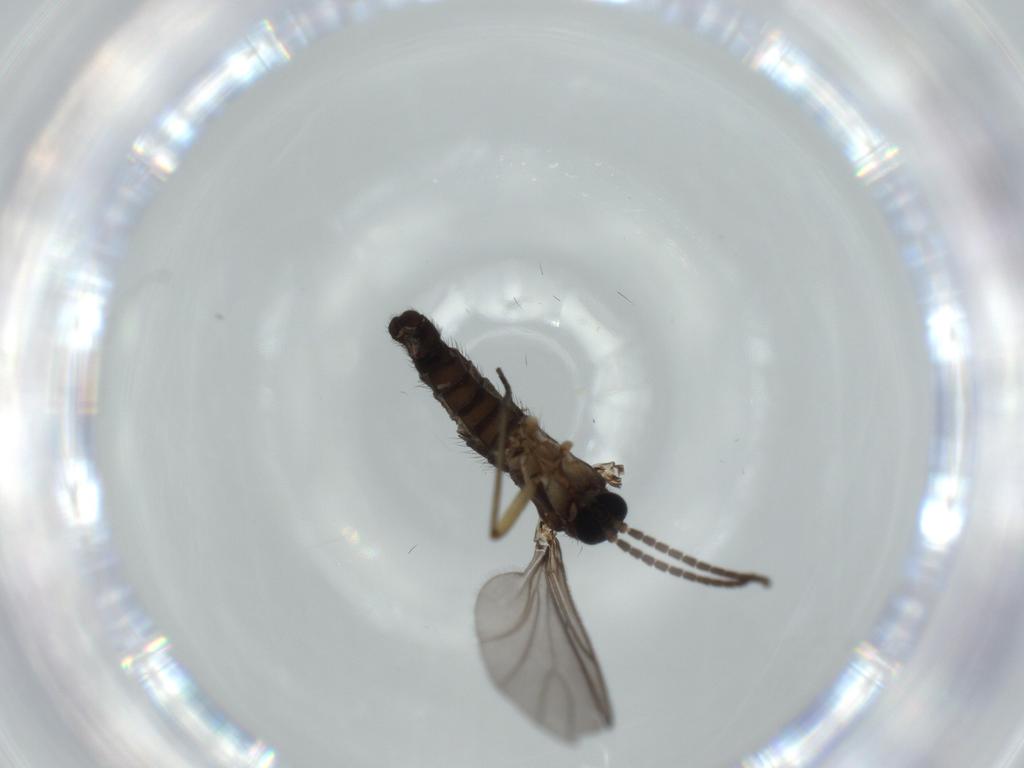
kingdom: Animalia
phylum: Arthropoda
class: Insecta
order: Diptera
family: Sciaridae
